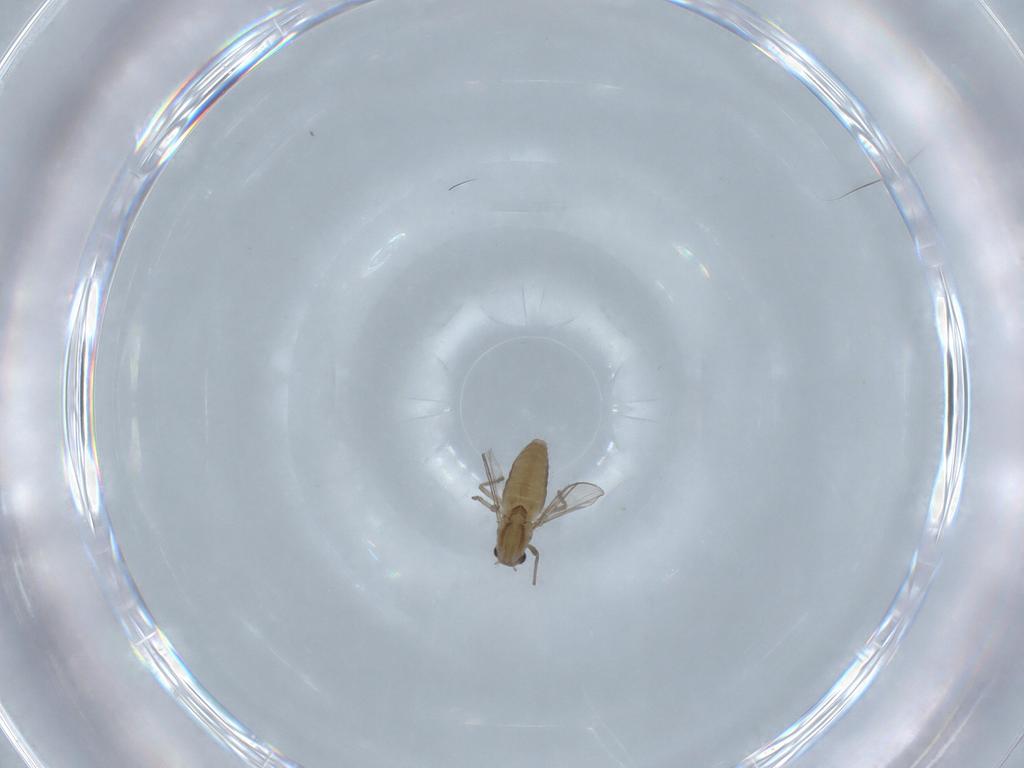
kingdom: Animalia
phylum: Arthropoda
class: Insecta
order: Diptera
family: Chironomidae
